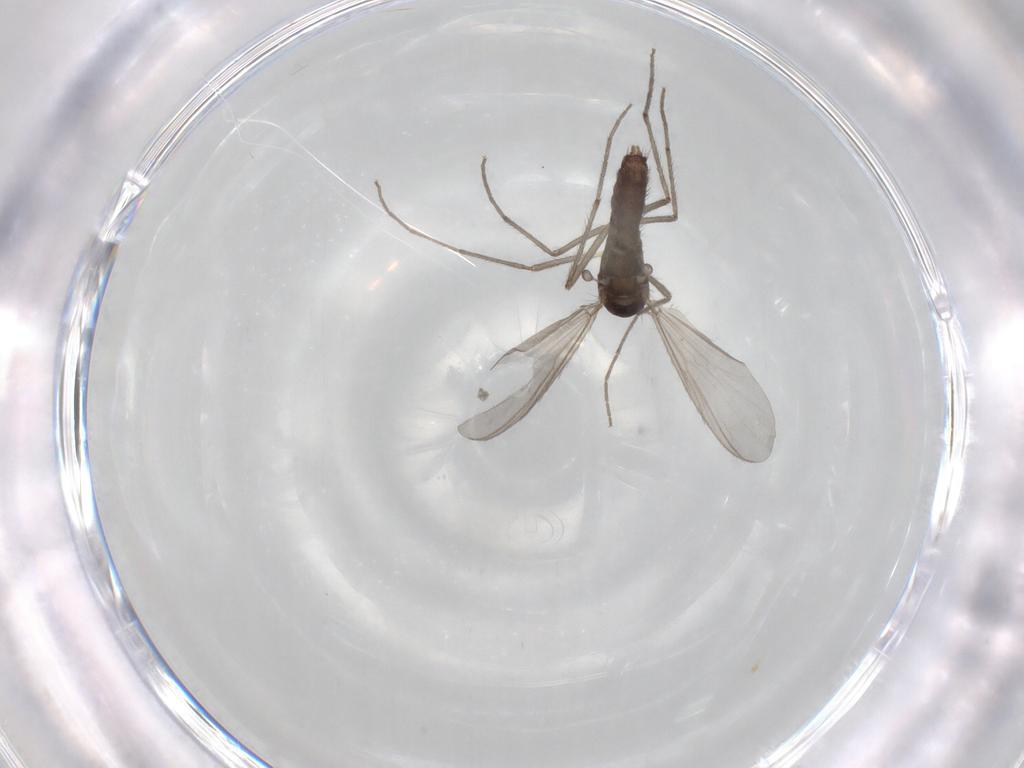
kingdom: Animalia
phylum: Arthropoda
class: Insecta
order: Diptera
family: Chironomidae
